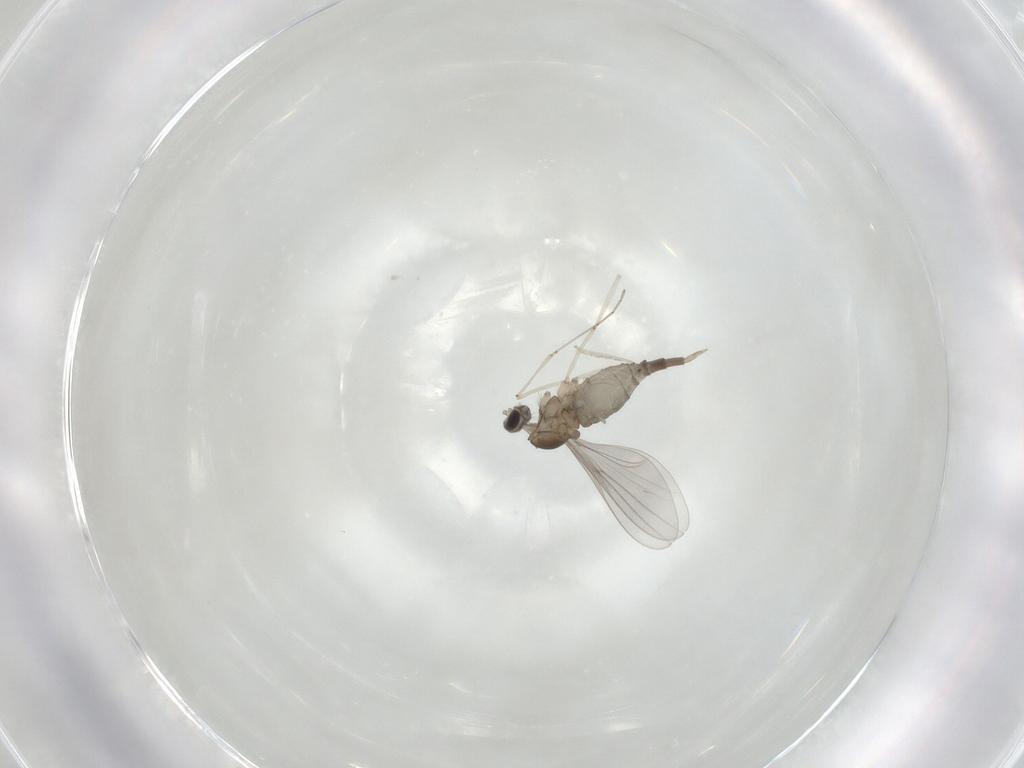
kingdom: Animalia
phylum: Arthropoda
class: Insecta
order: Diptera
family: Cecidomyiidae
